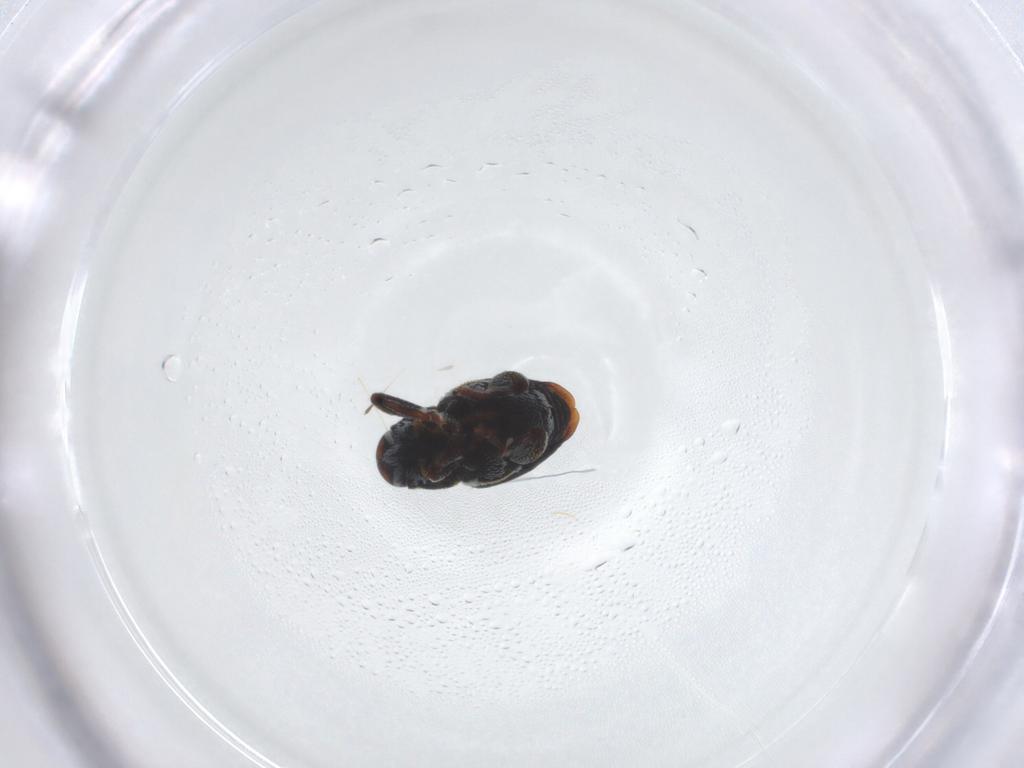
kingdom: Animalia
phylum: Arthropoda
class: Insecta
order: Coleoptera
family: Curculionidae
